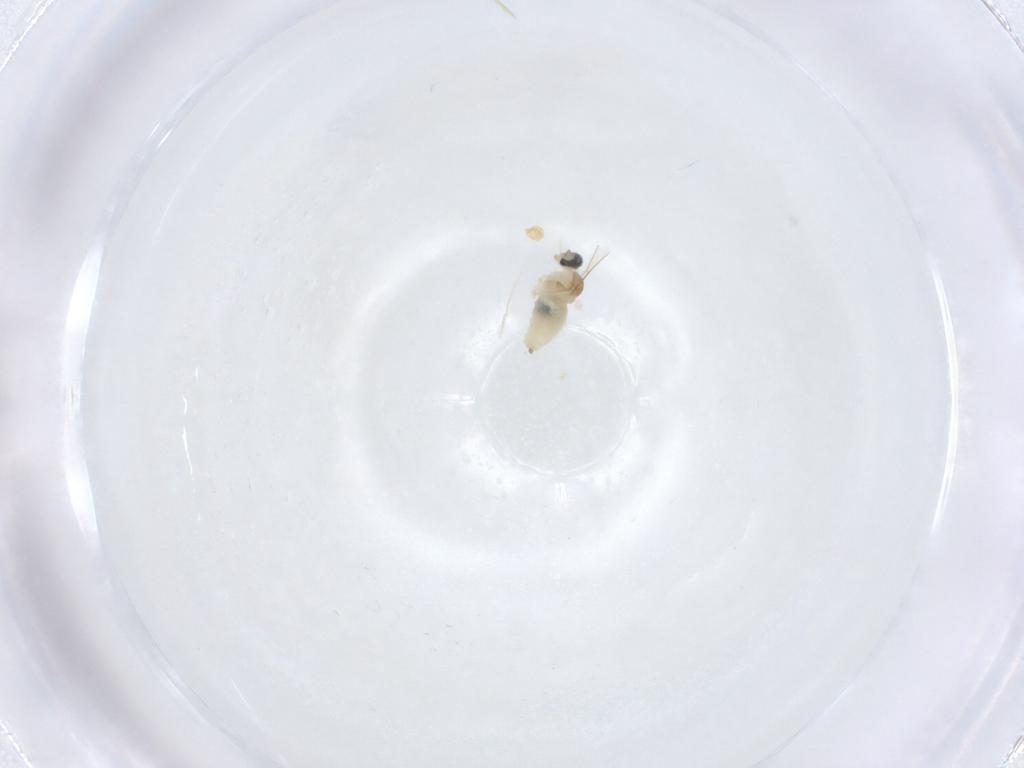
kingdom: Animalia
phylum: Arthropoda
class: Insecta
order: Diptera
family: Cecidomyiidae
